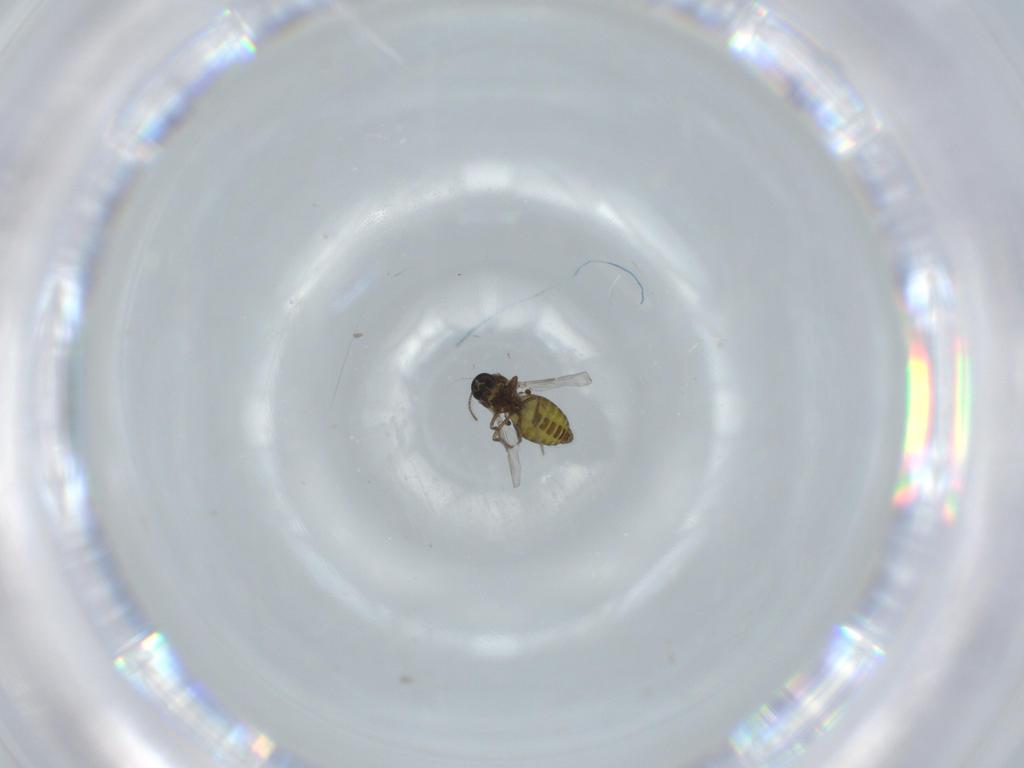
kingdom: Animalia
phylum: Arthropoda
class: Insecta
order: Diptera
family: Ceratopogonidae
